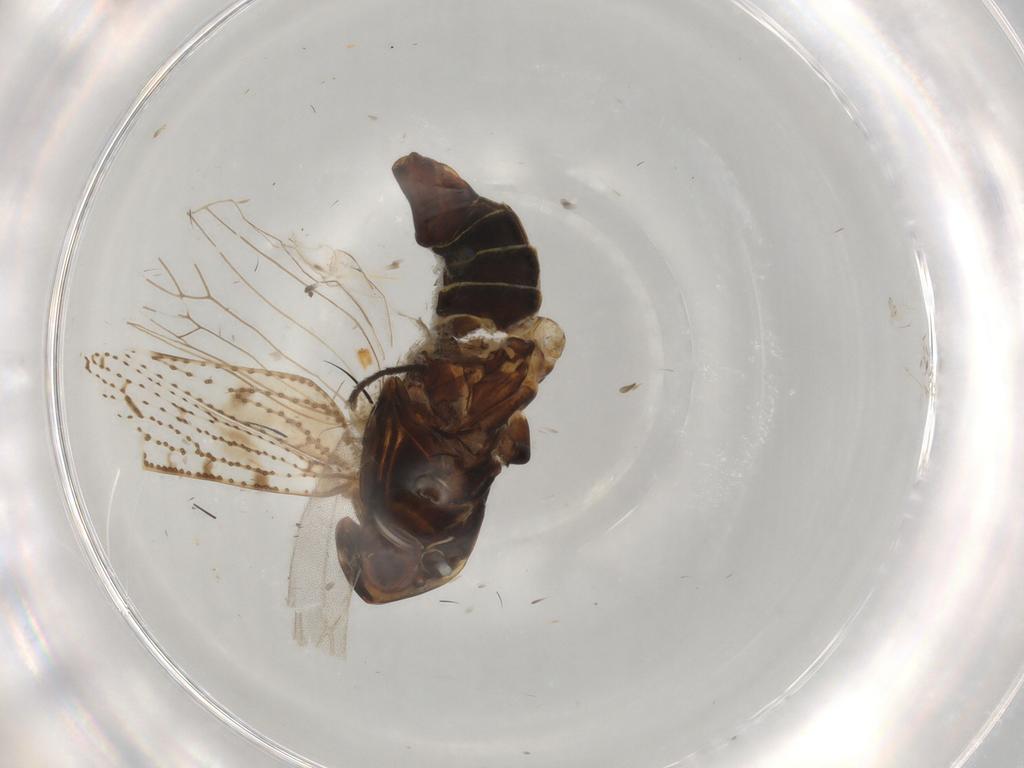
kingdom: Animalia
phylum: Arthropoda
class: Insecta
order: Hemiptera
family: Cixiidae
